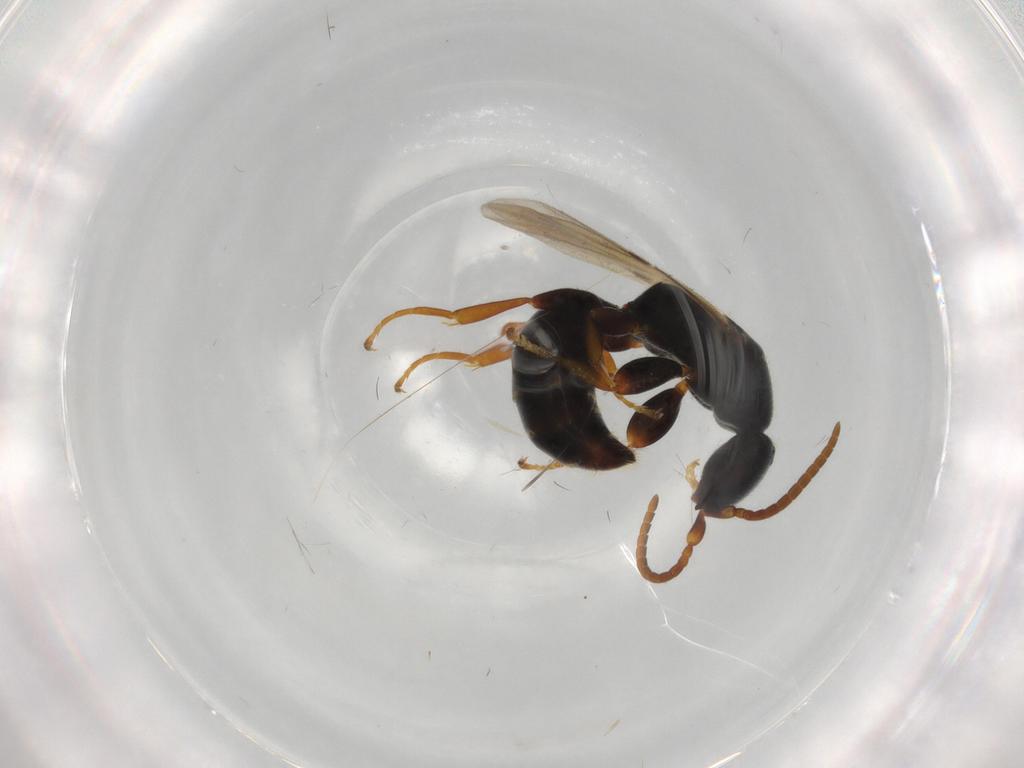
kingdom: Animalia
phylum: Arthropoda
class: Insecta
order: Hymenoptera
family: Bethylidae
